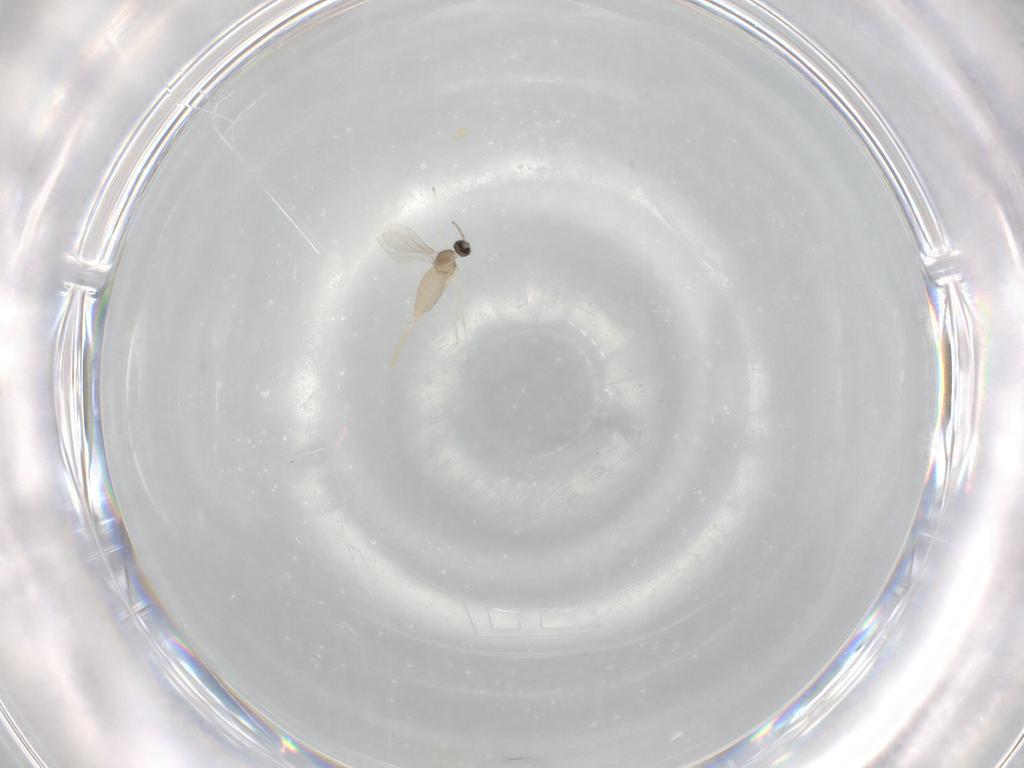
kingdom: Animalia
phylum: Arthropoda
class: Insecta
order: Diptera
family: Cecidomyiidae
